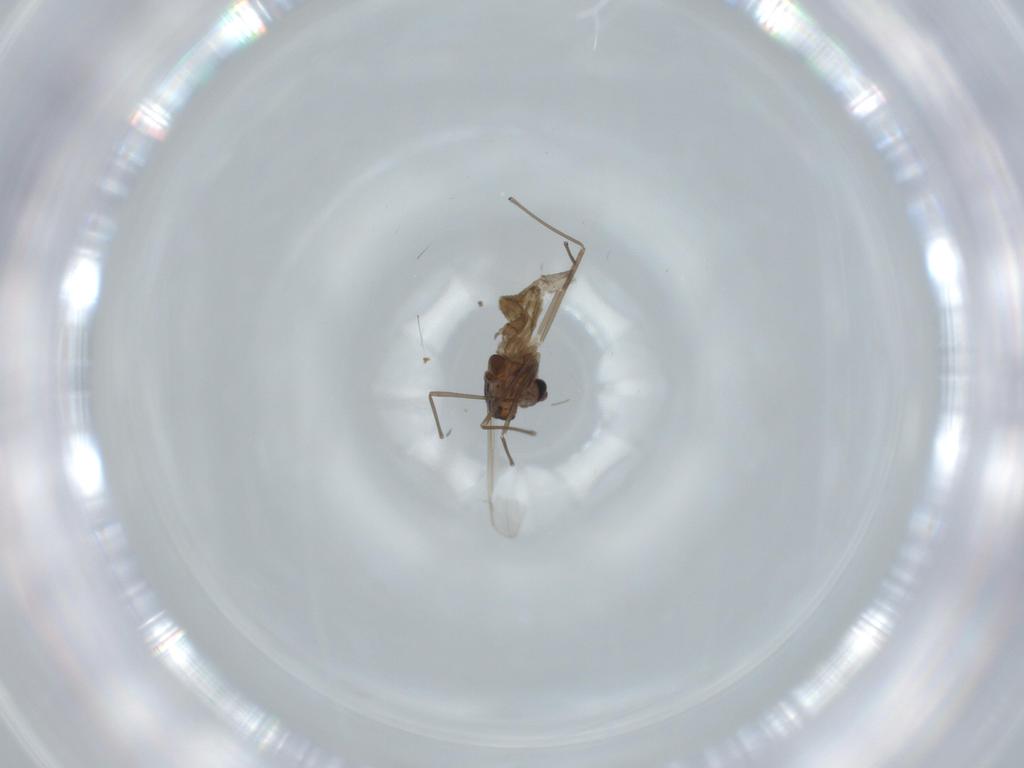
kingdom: Animalia
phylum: Arthropoda
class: Insecta
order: Diptera
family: Chironomidae
